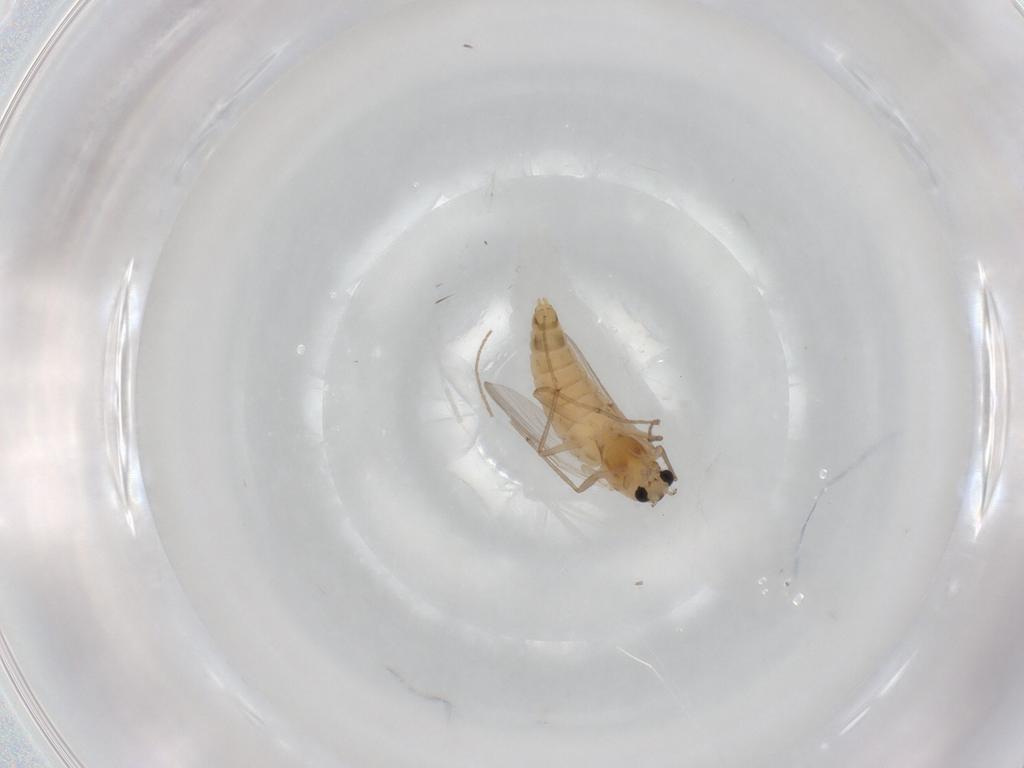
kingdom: Animalia
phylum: Arthropoda
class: Insecta
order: Diptera
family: Chironomidae
